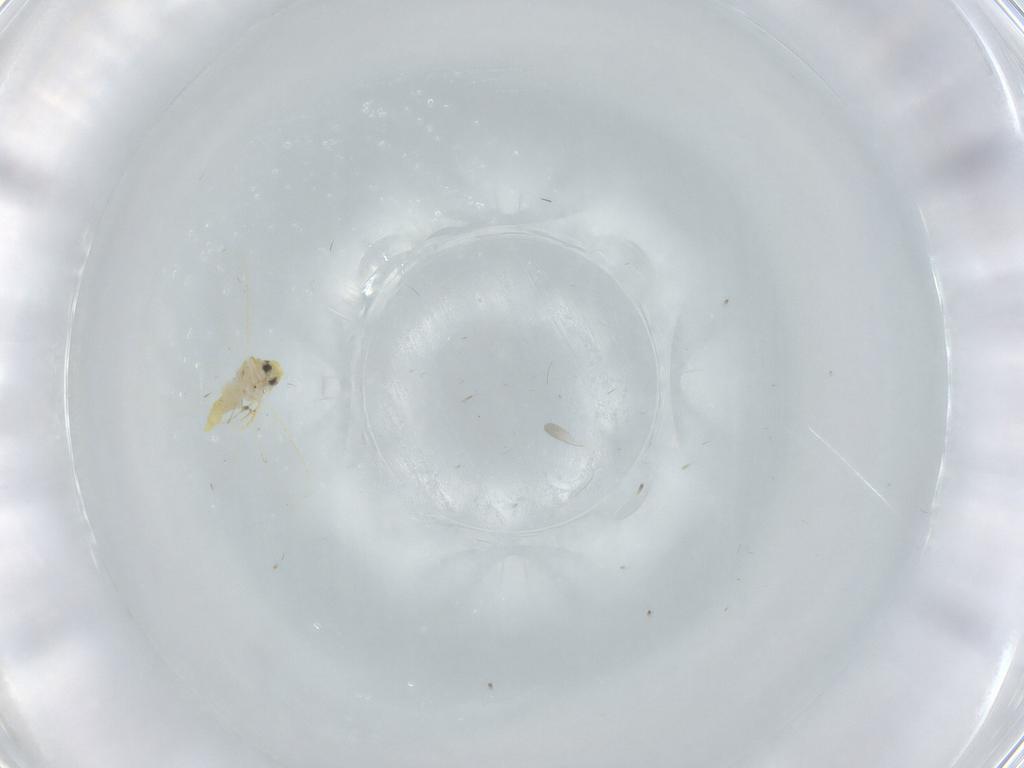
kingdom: Animalia
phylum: Arthropoda
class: Insecta
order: Hemiptera
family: Aleyrodidae
